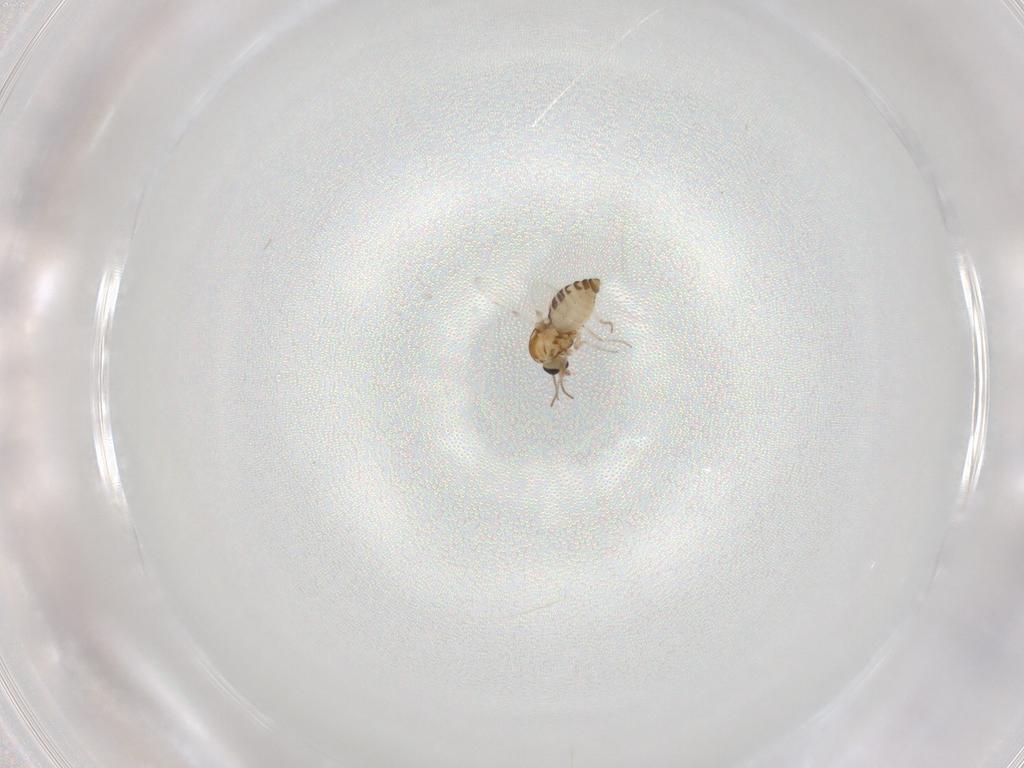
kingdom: Animalia
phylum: Arthropoda
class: Insecta
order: Diptera
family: Sciaridae
